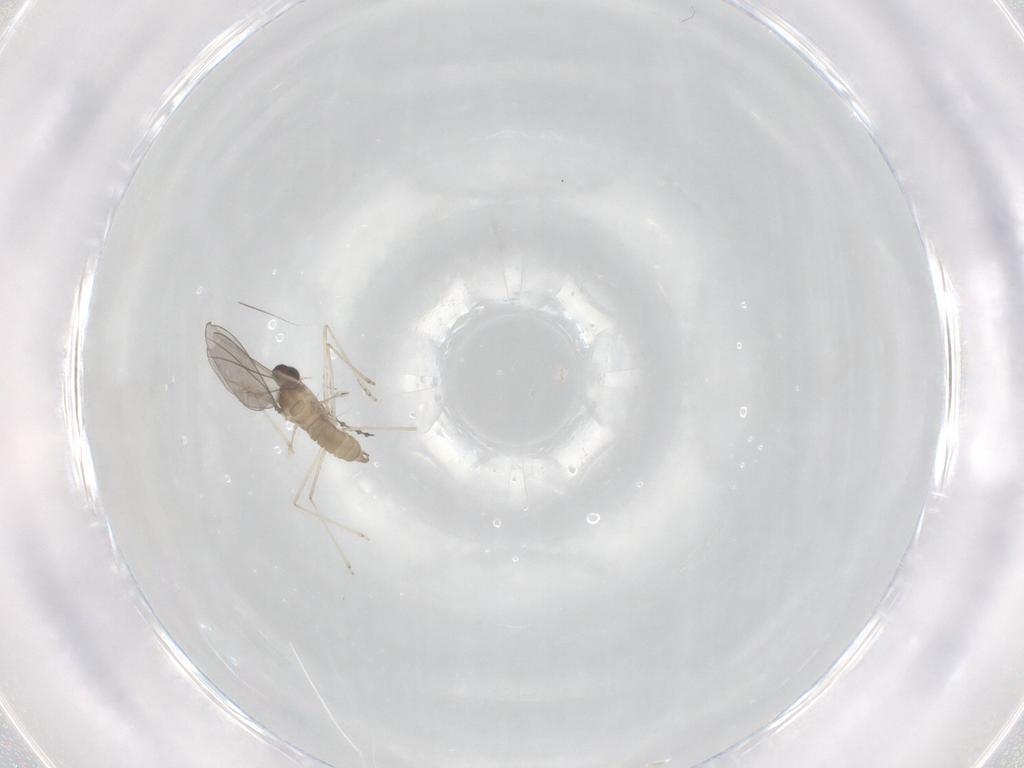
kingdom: Animalia
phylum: Arthropoda
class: Insecta
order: Diptera
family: Cecidomyiidae
